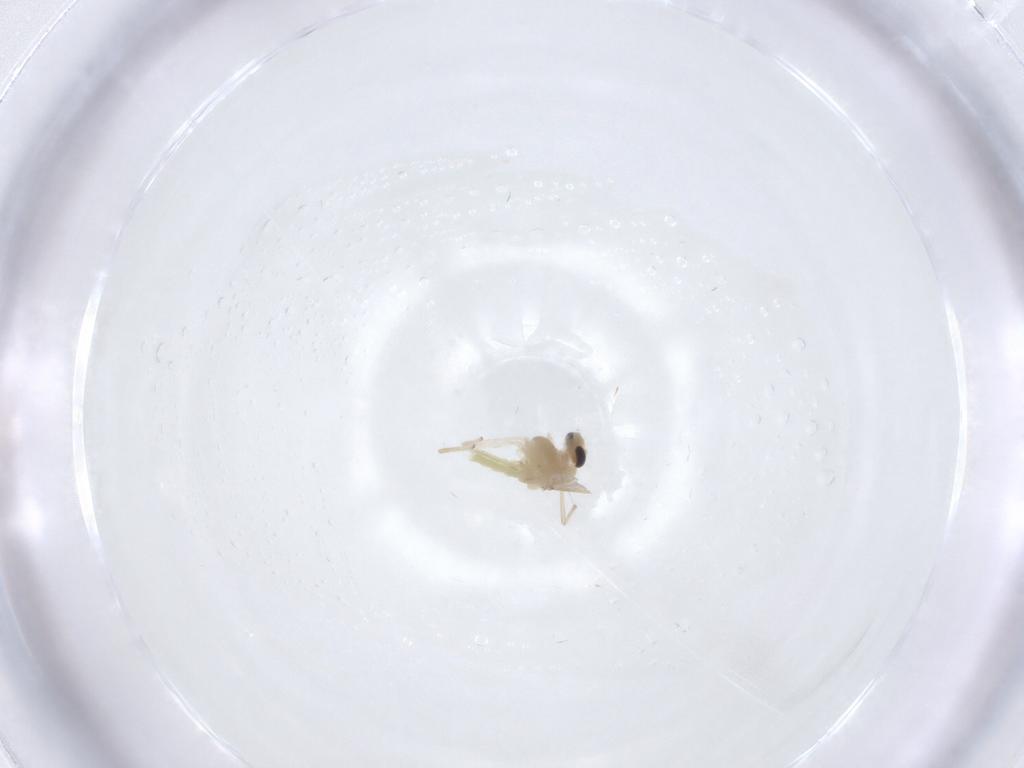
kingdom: Animalia
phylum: Arthropoda
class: Insecta
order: Diptera
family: Chironomidae
